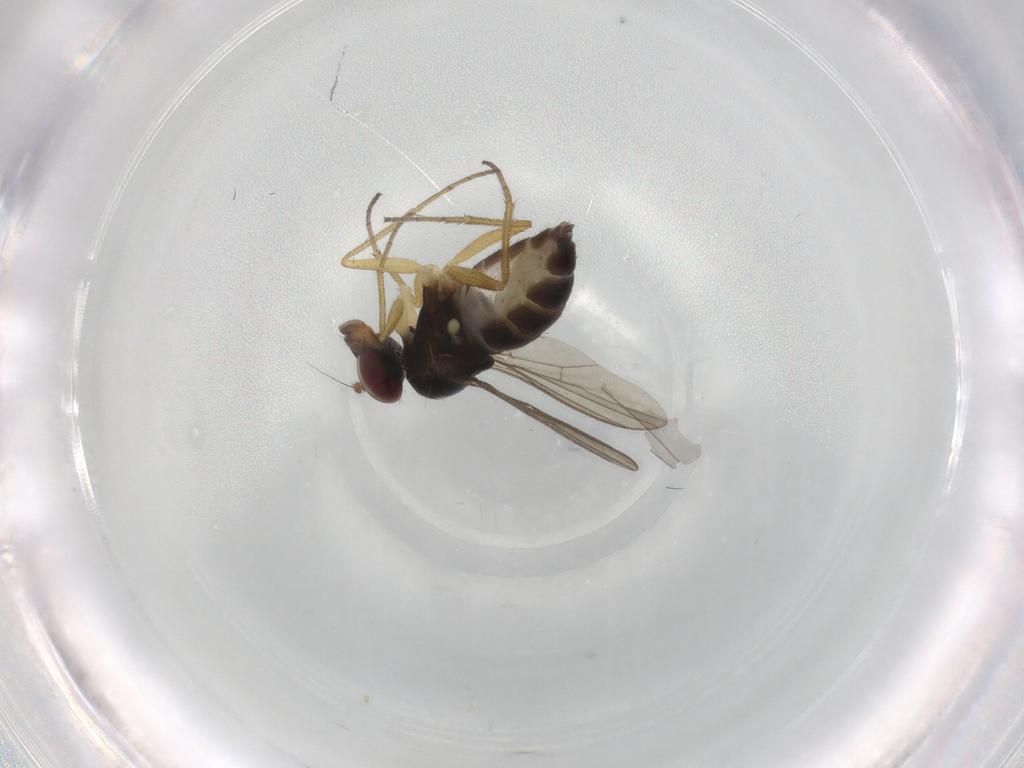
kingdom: Animalia
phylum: Arthropoda
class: Insecta
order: Diptera
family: Dolichopodidae
